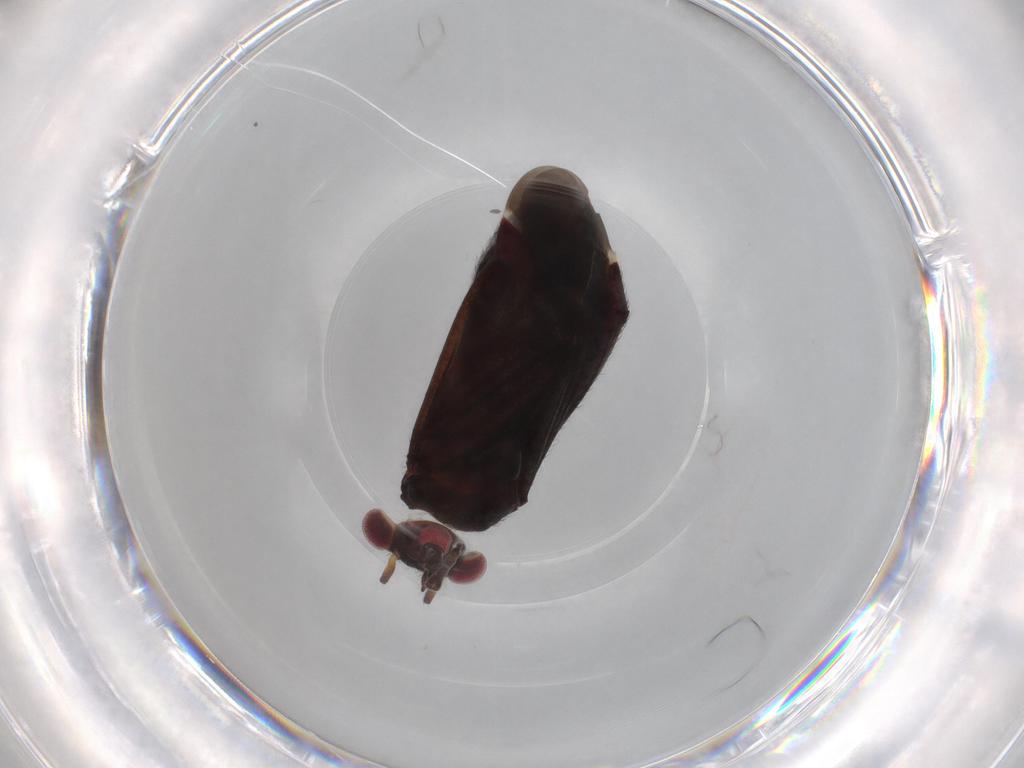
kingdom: Animalia
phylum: Arthropoda
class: Insecta
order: Hemiptera
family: Miridae
